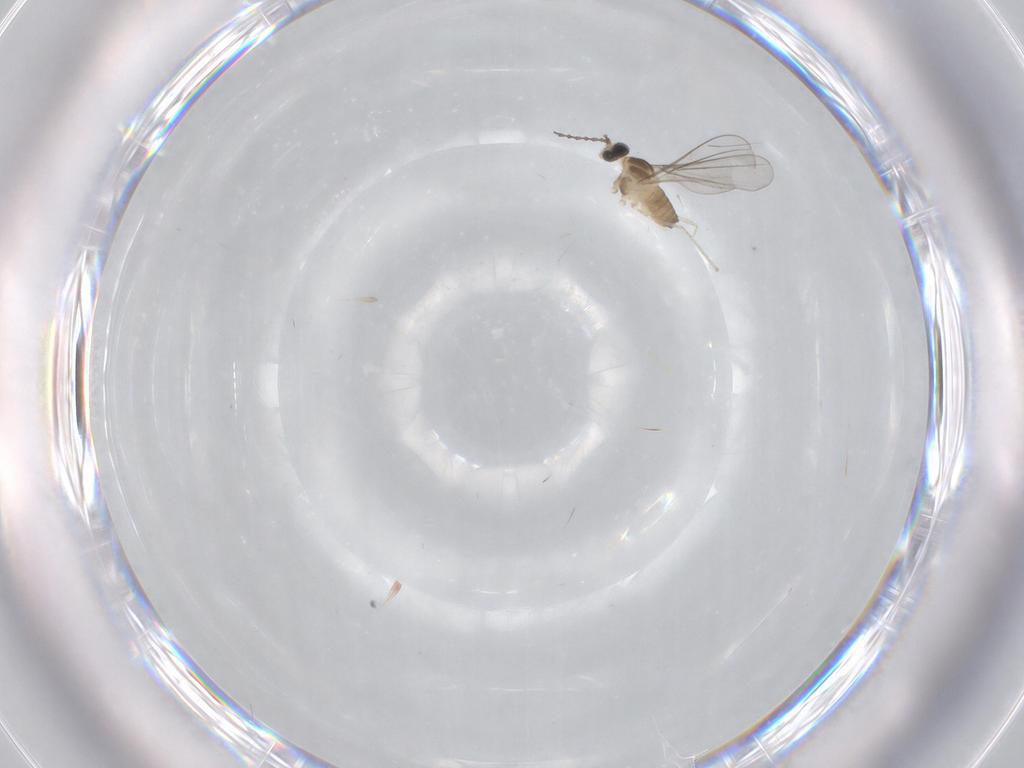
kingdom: Animalia
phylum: Arthropoda
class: Insecta
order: Diptera
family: Cecidomyiidae
